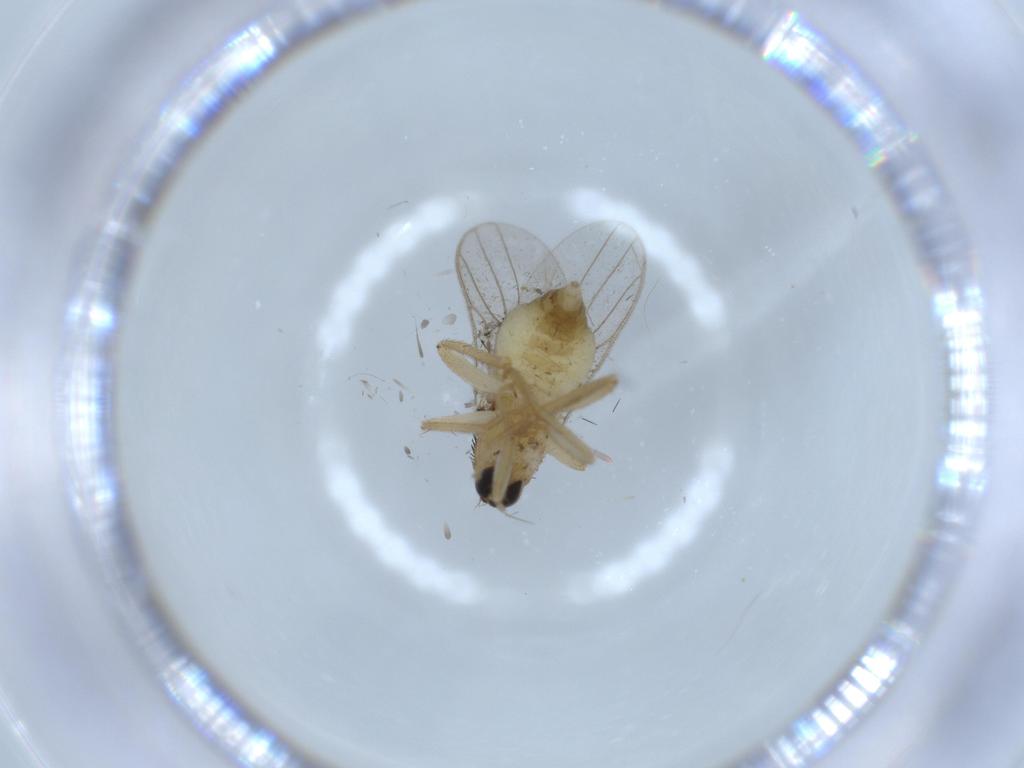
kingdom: Animalia
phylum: Arthropoda
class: Insecta
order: Diptera
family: Hybotidae
